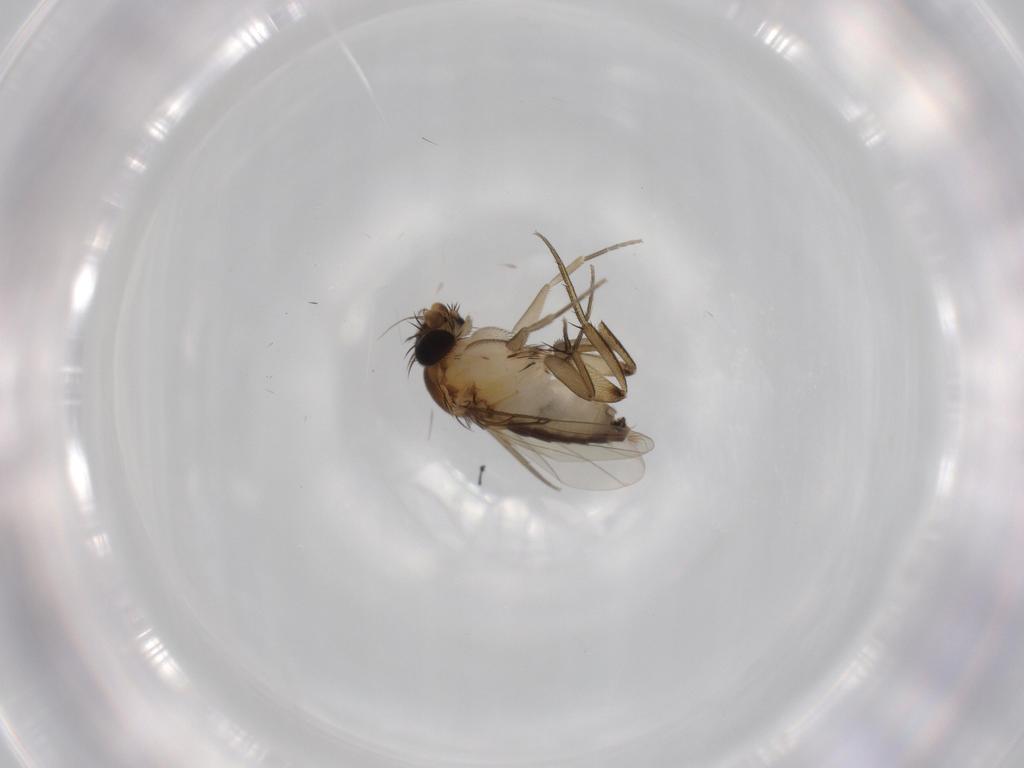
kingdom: Animalia
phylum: Arthropoda
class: Insecta
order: Diptera
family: Phoridae
